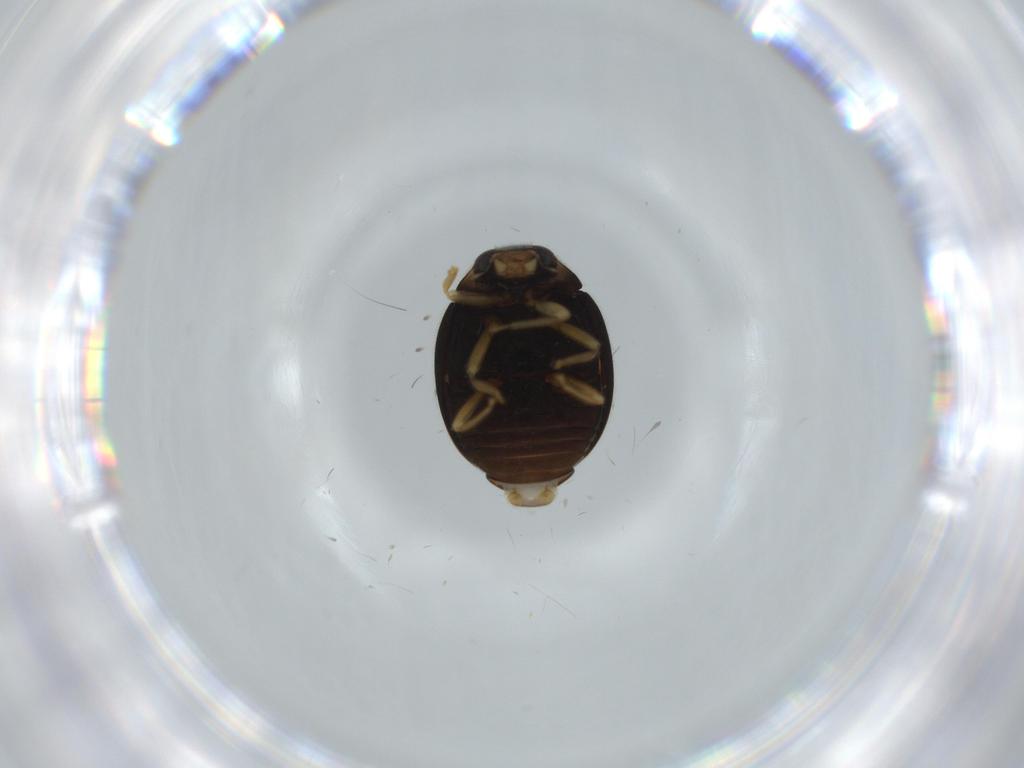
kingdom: Animalia
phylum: Arthropoda
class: Insecta
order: Coleoptera
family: Coccinellidae
